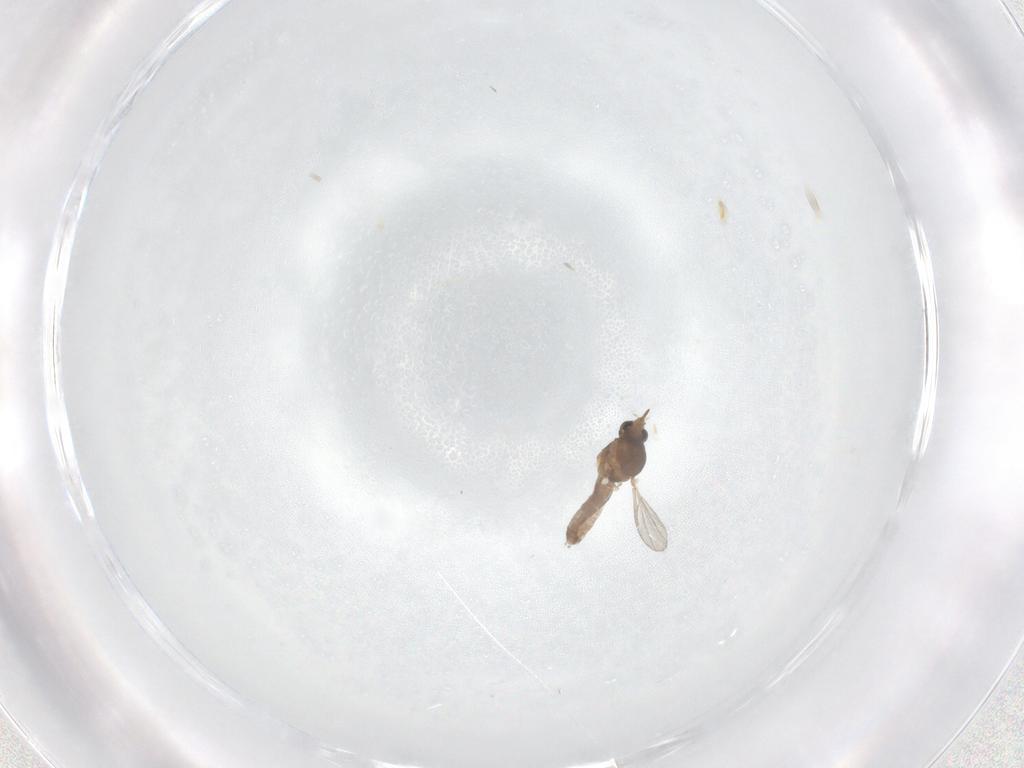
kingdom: Animalia
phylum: Arthropoda
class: Insecta
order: Diptera
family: Ceratopogonidae
